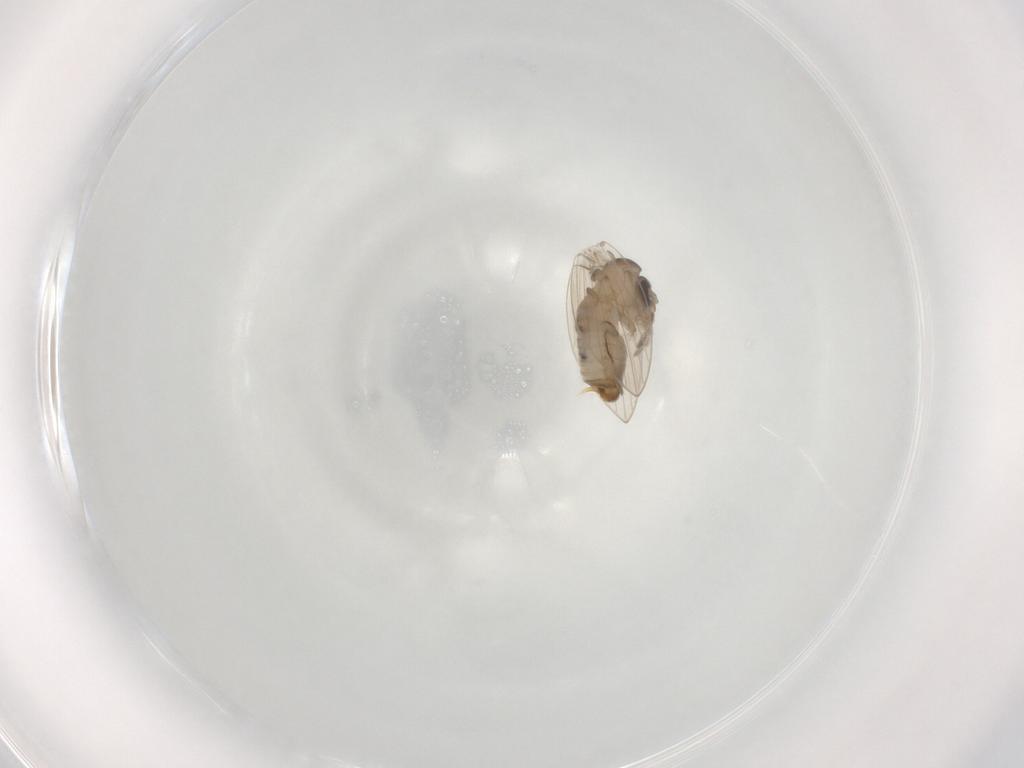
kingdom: Animalia
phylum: Arthropoda
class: Insecta
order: Diptera
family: Psychodidae
